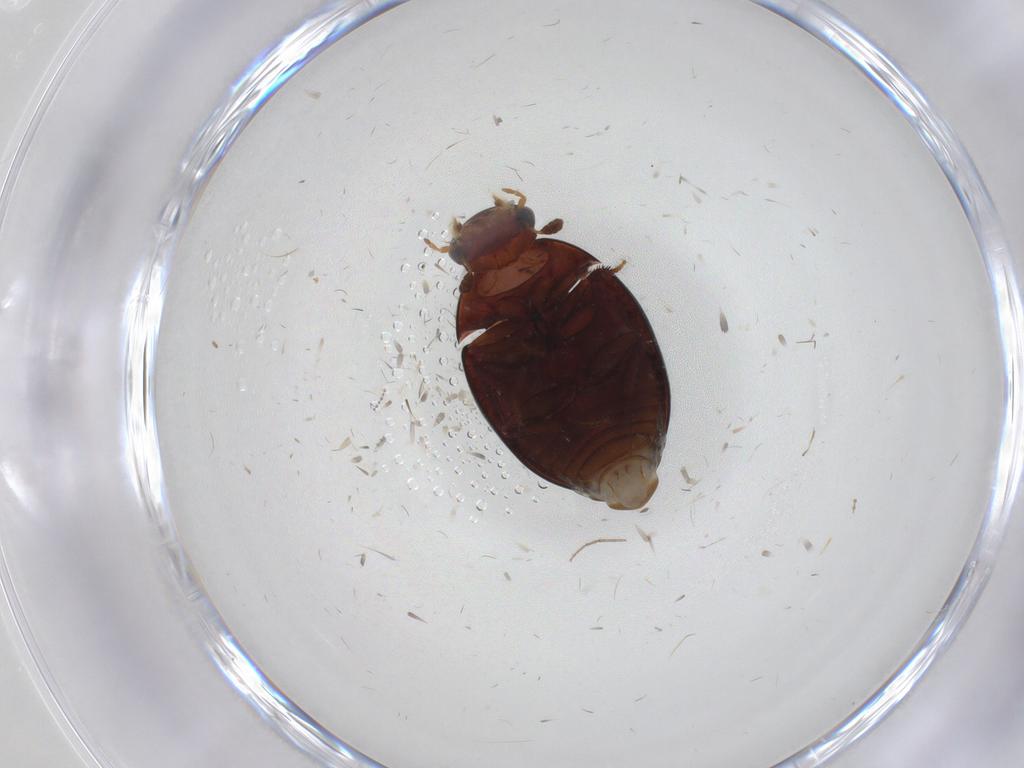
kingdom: Animalia
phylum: Arthropoda
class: Insecta
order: Coleoptera
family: Hydrophilidae
